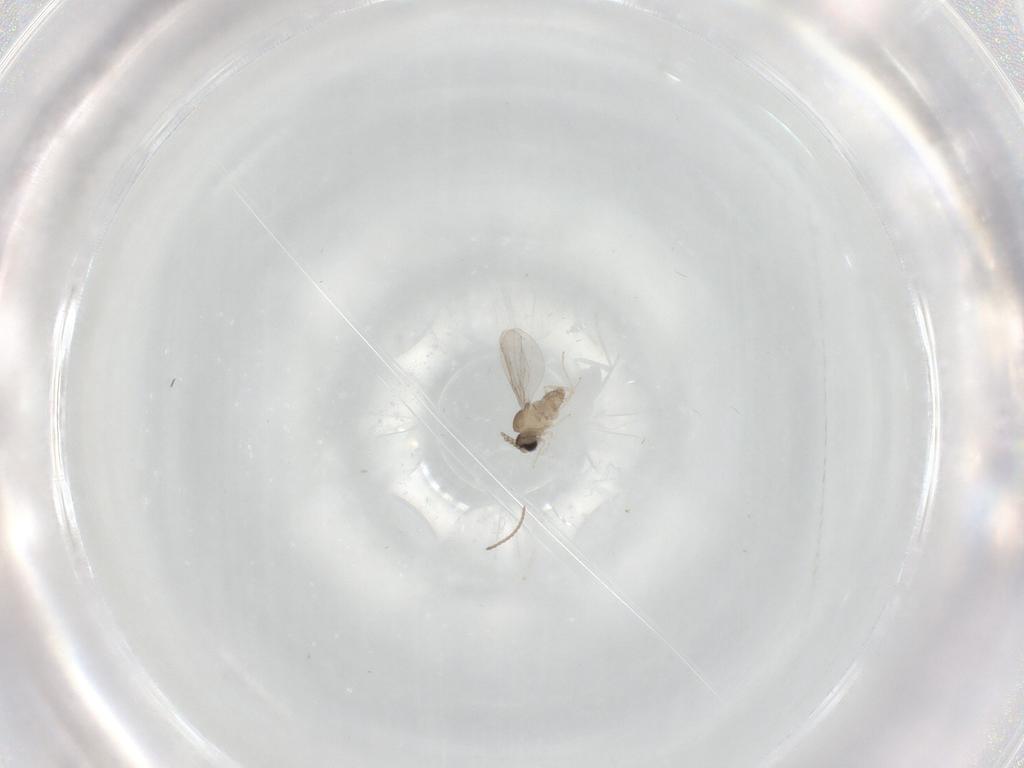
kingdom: Animalia
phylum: Arthropoda
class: Insecta
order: Diptera
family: Cecidomyiidae
